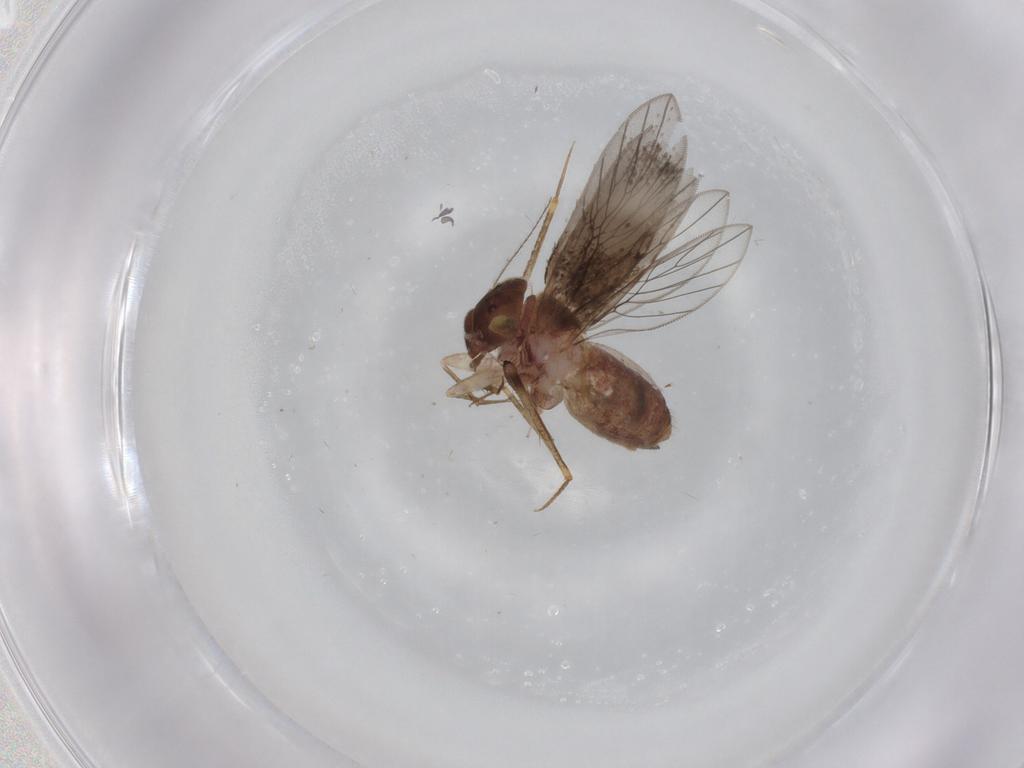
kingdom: Animalia
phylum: Arthropoda
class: Insecta
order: Psocodea
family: Lepidopsocidae
